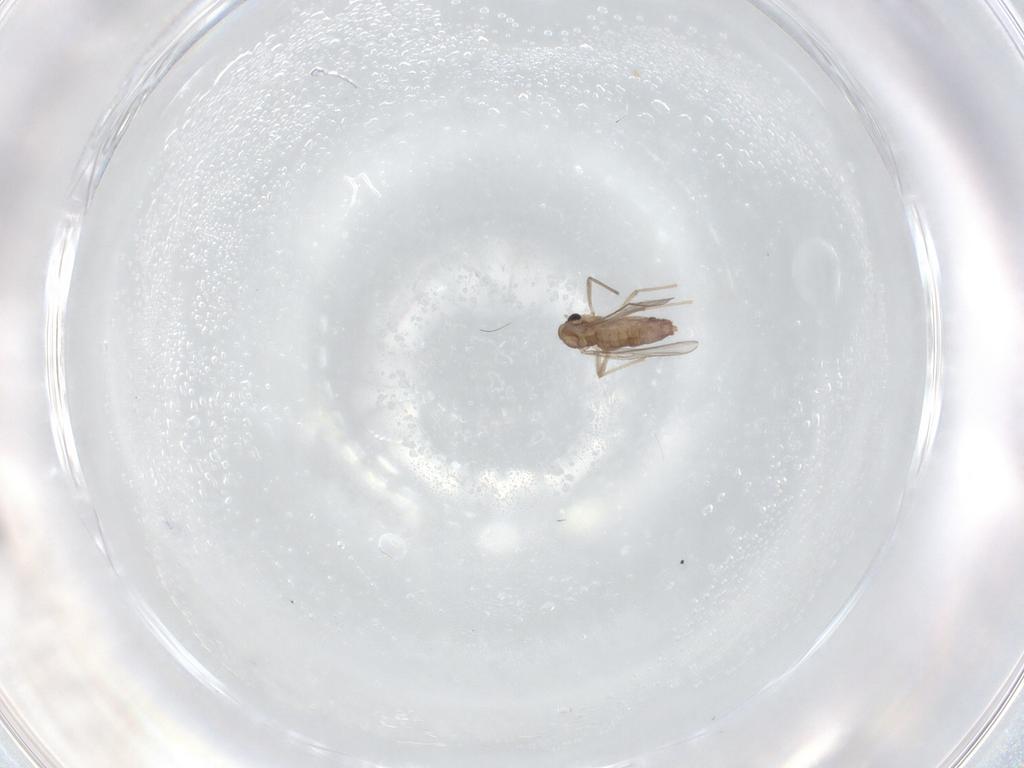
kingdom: Animalia
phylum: Arthropoda
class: Insecta
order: Diptera
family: Chironomidae
